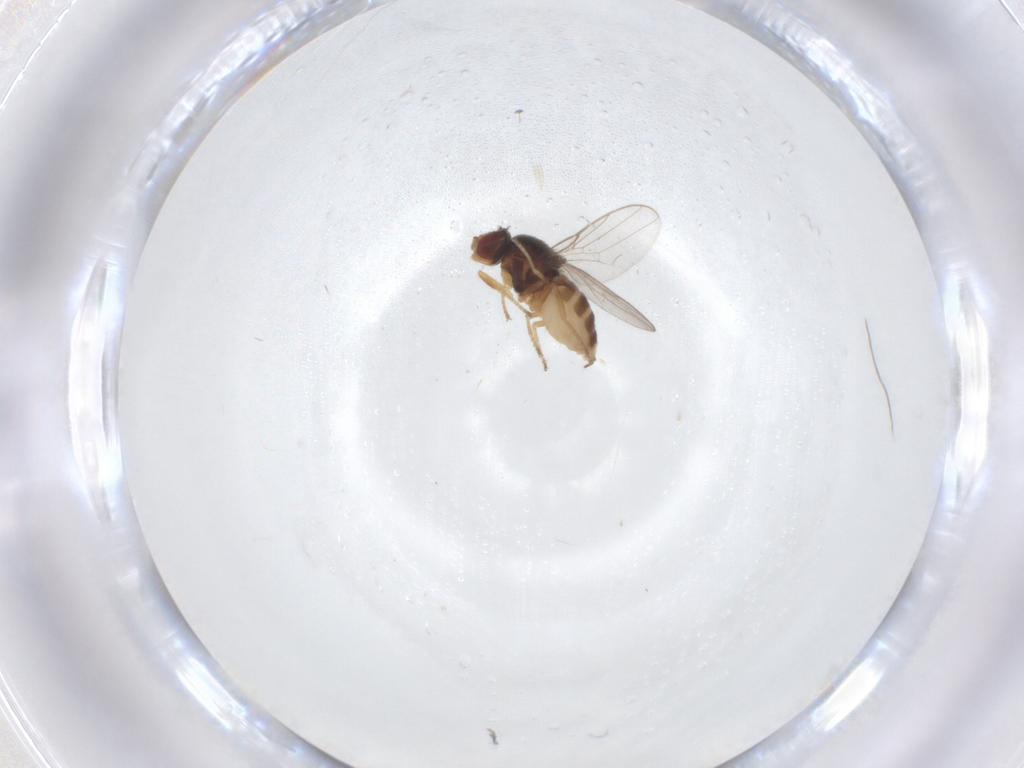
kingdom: Animalia
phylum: Arthropoda
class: Insecta
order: Diptera
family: Chloropidae
